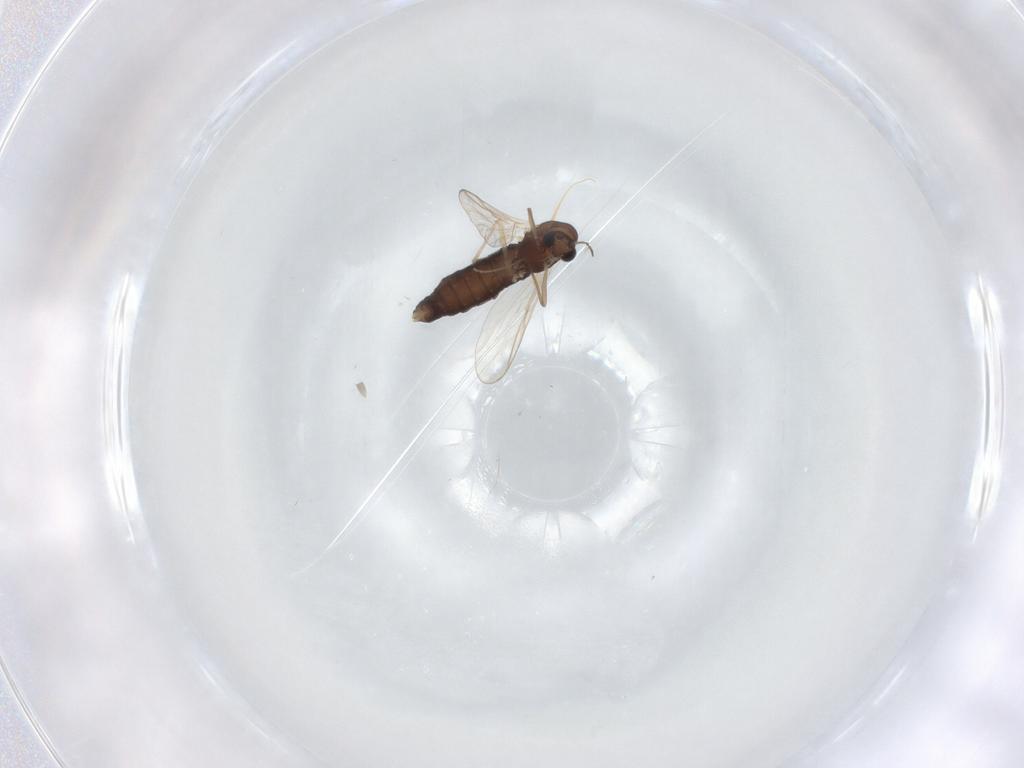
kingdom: Animalia
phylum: Arthropoda
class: Insecta
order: Diptera
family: Chironomidae
